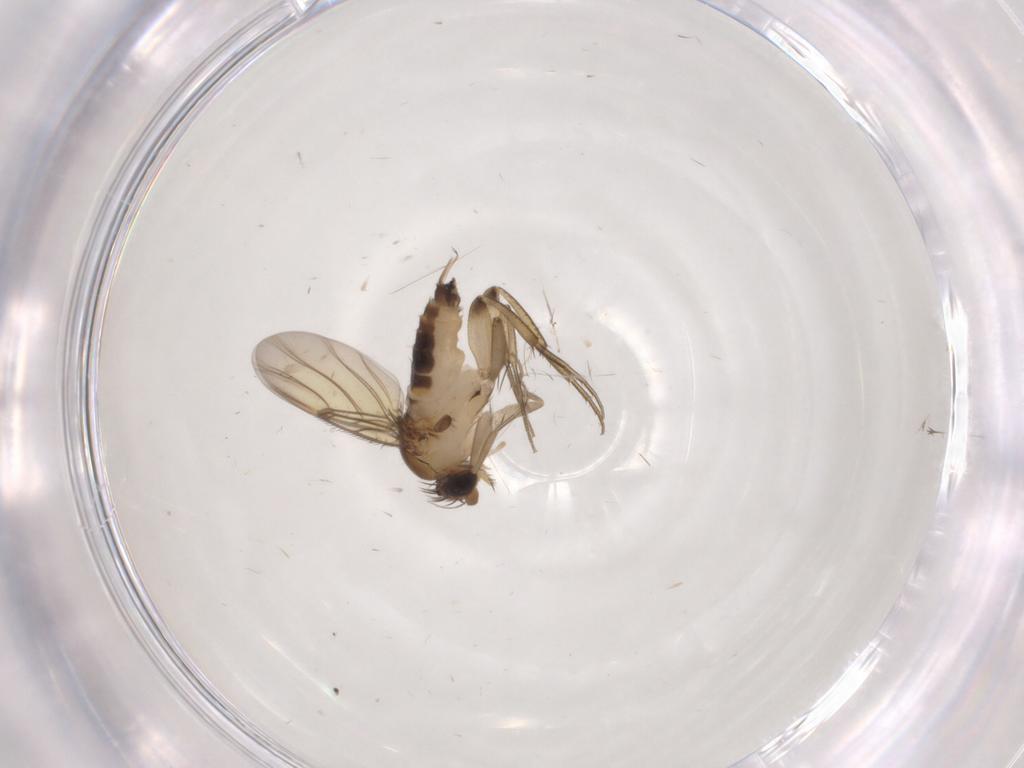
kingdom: Animalia
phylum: Arthropoda
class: Insecta
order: Diptera
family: Phoridae
